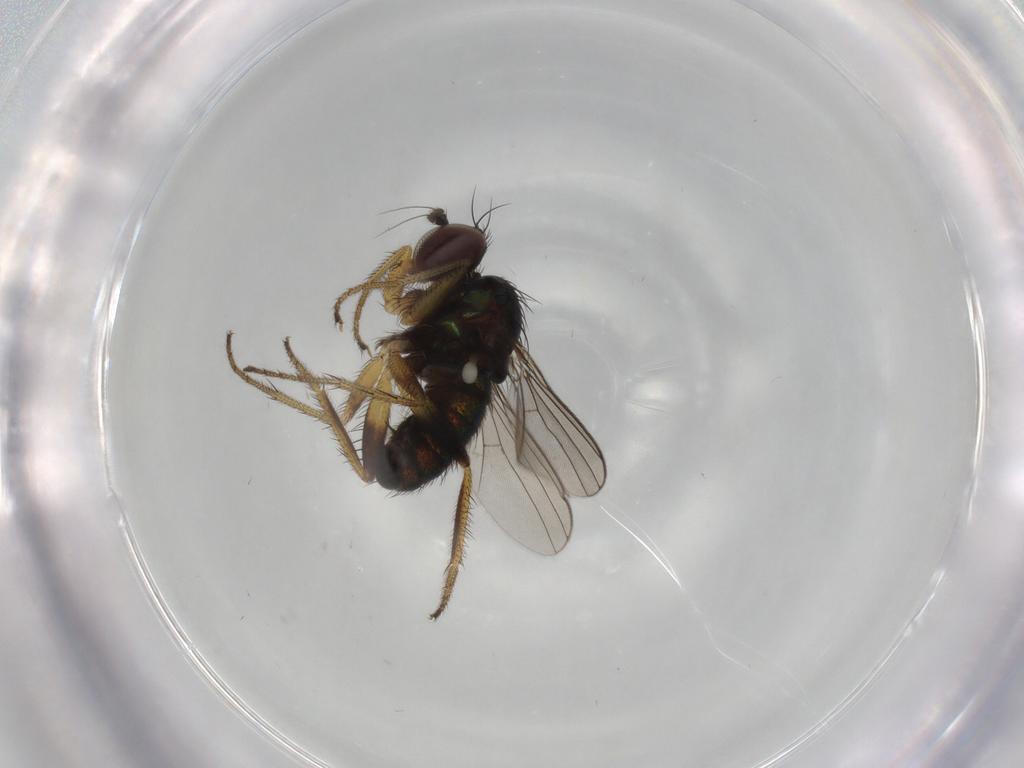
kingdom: Animalia
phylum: Arthropoda
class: Insecta
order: Diptera
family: Dolichopodidae
